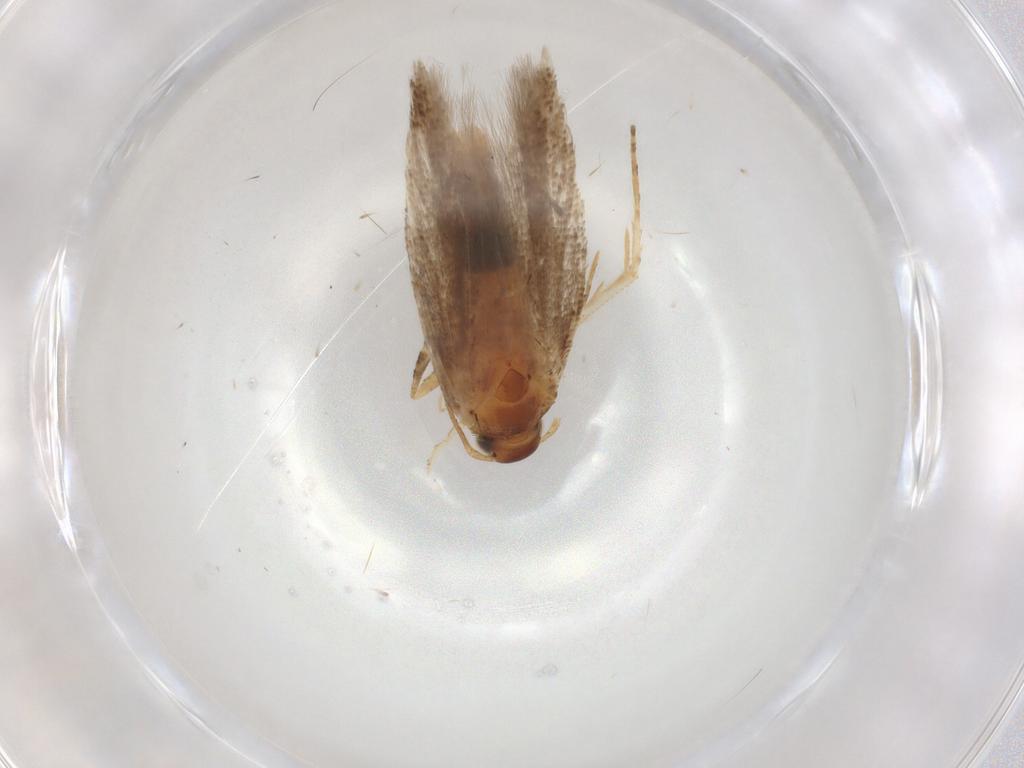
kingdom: Animalia
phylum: Arthropoda
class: Insecta
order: Lepidoptera
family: Gelechiidae
